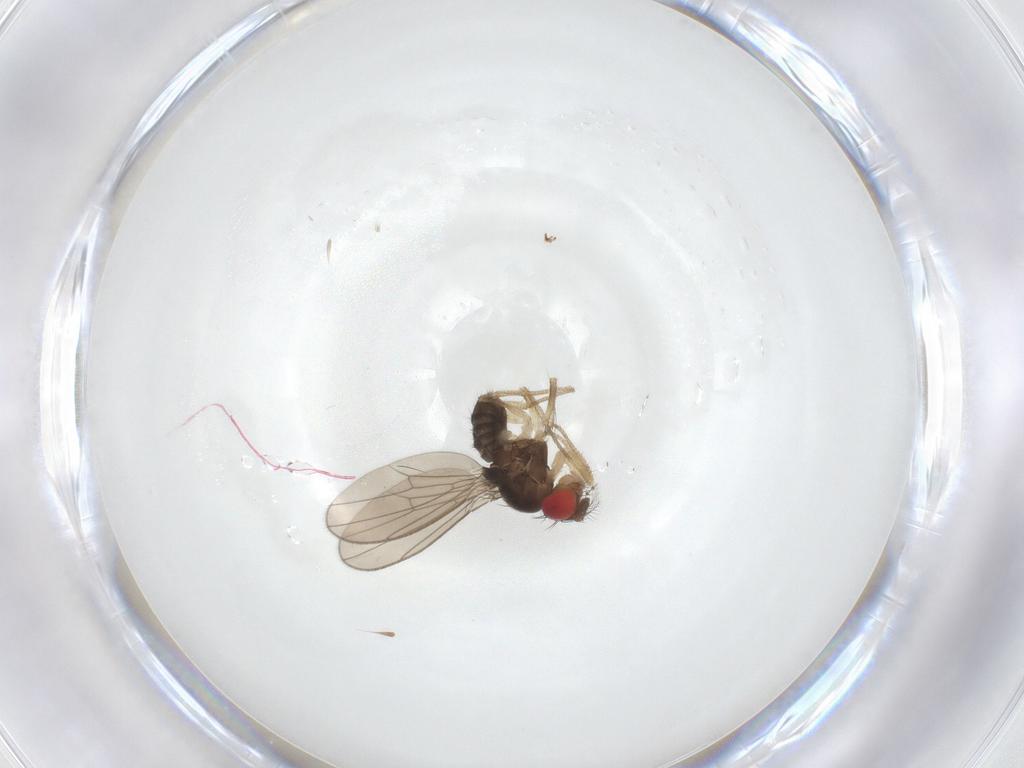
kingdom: Animalia
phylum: Arthropoda
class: Insecta
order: Diptera
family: Drosophilidae
